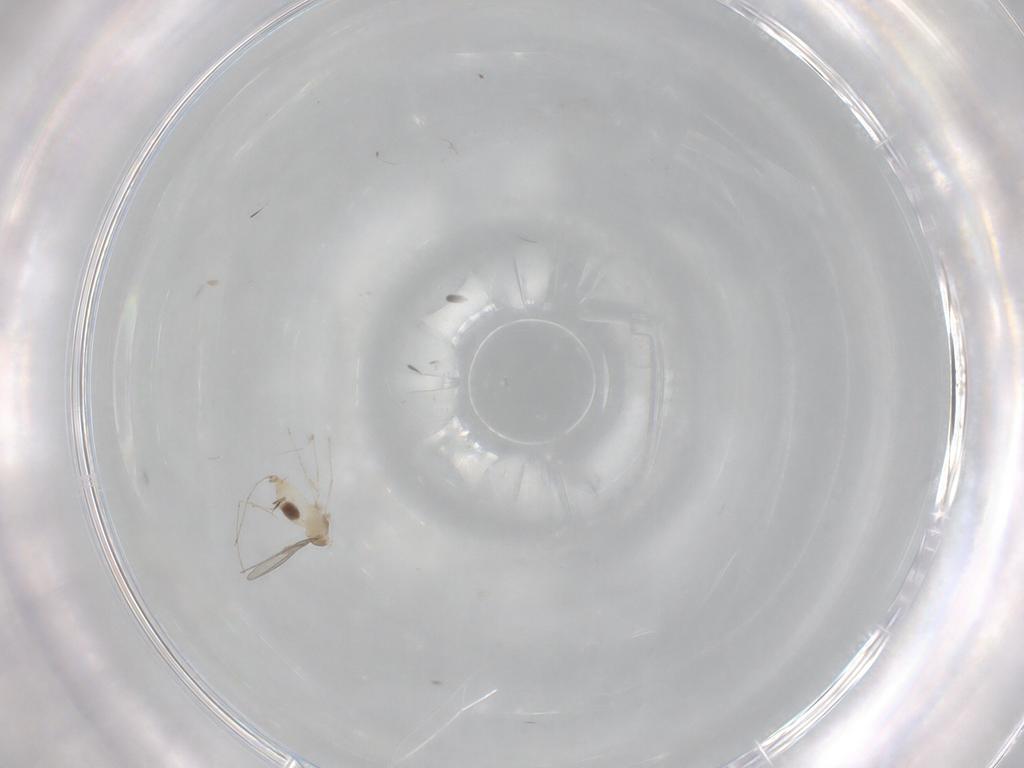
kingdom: Animalia
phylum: Arthropoda
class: Insecta
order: Diptera
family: Cecidomyiidae
